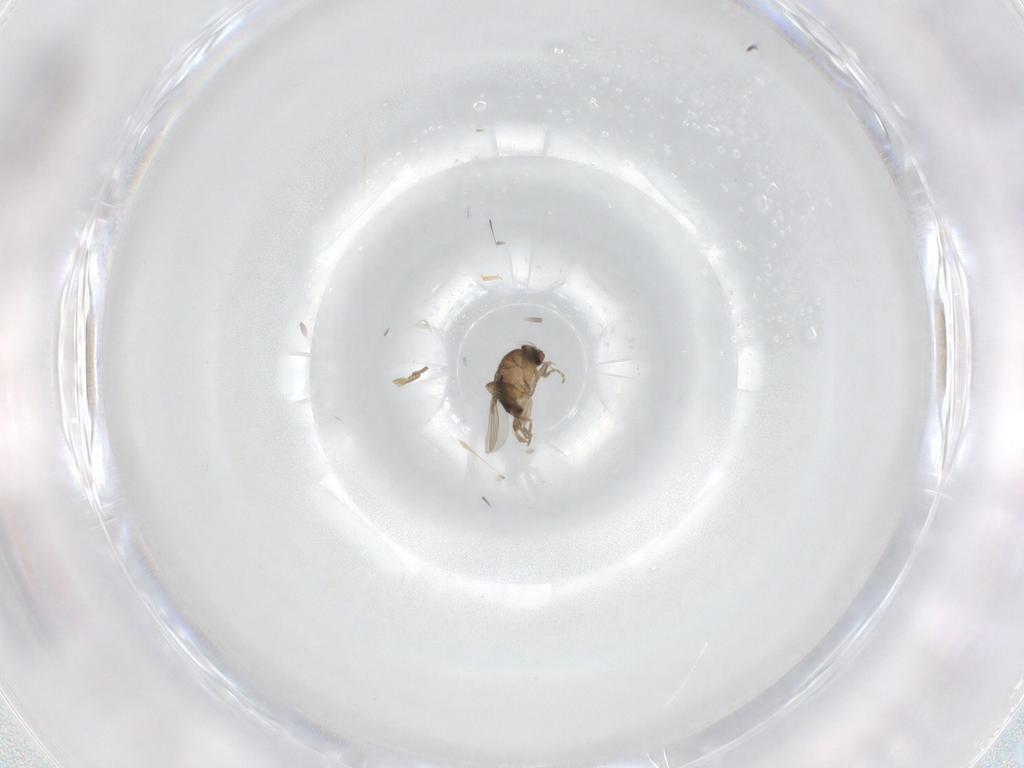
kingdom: Animalia
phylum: Arthropoda
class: Insecta
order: Diptera
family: Phoridae
